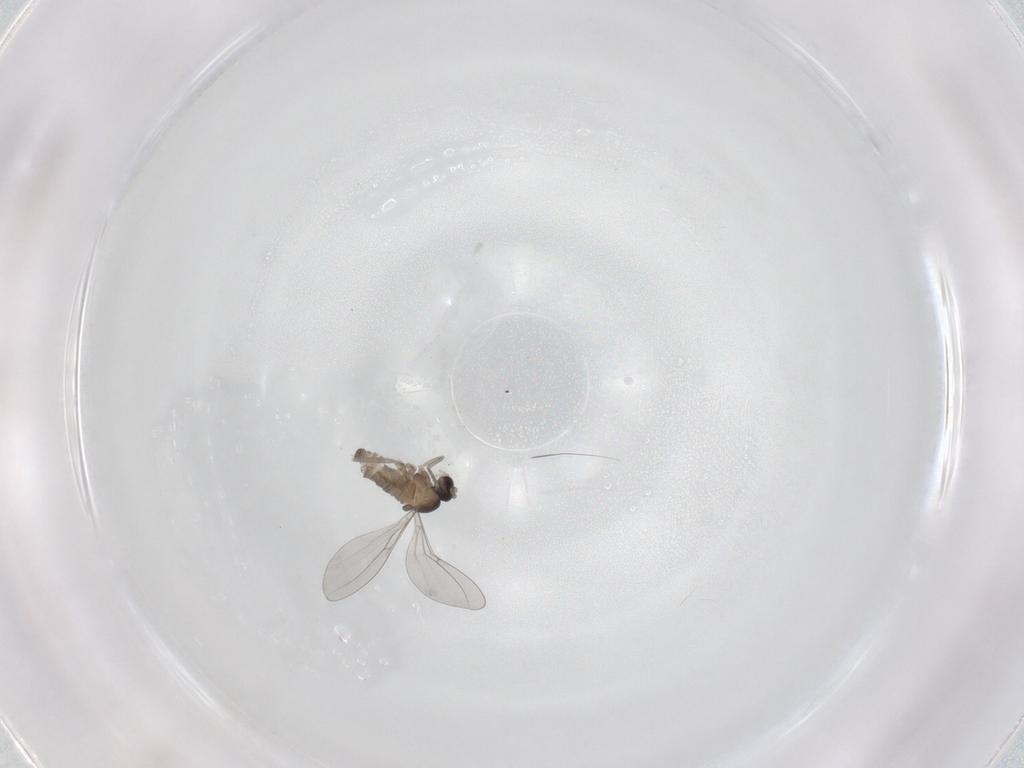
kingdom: Animalia
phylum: Arthropoda
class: Insecta
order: Diptera
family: Cecidomyiidae
